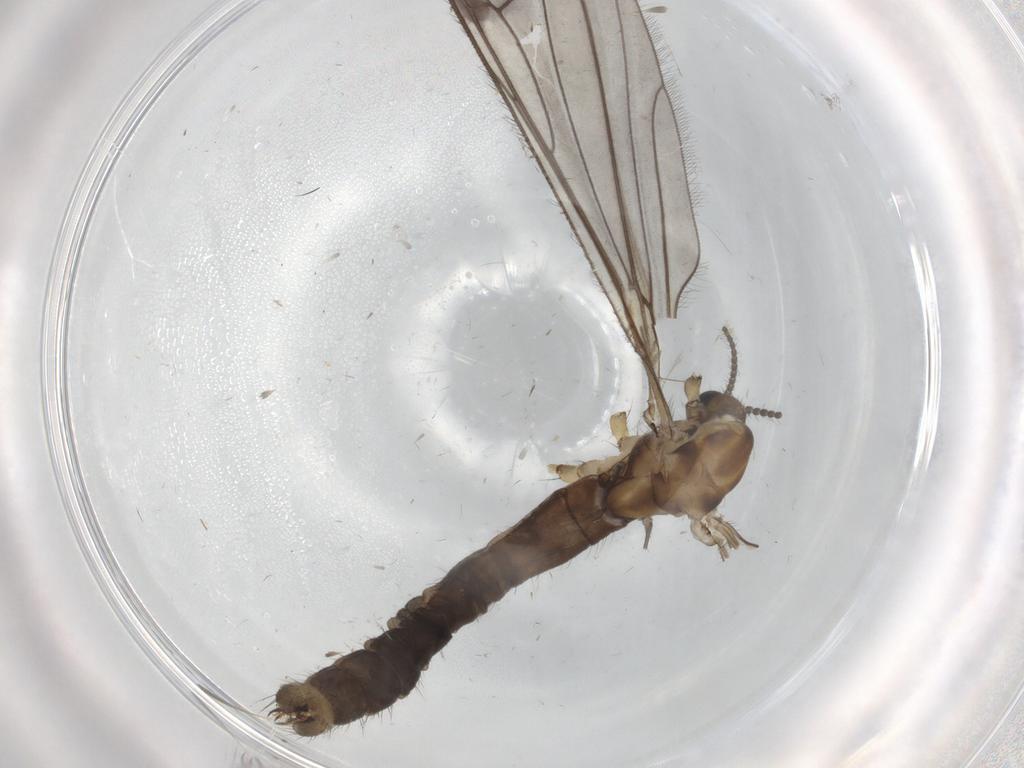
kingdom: Animalia
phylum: Arthropoda
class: Insecta
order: Diptera
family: Limoniidae
